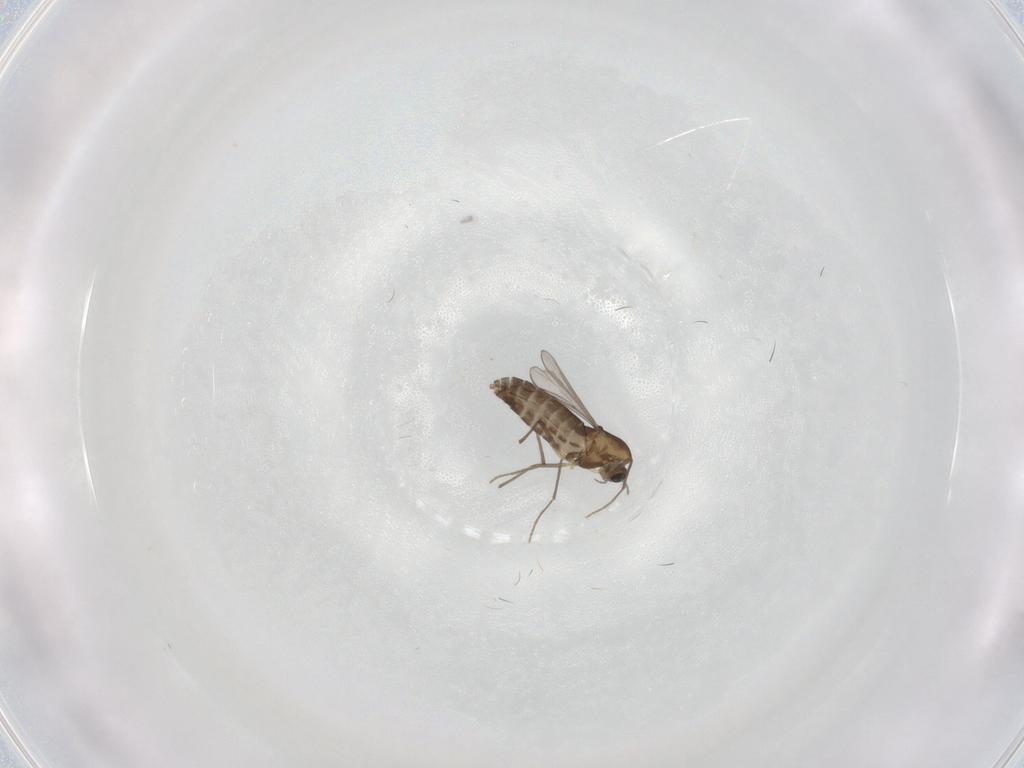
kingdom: Animalia
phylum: Arthropoda
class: Insecta
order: Diptera
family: Chironomidae
